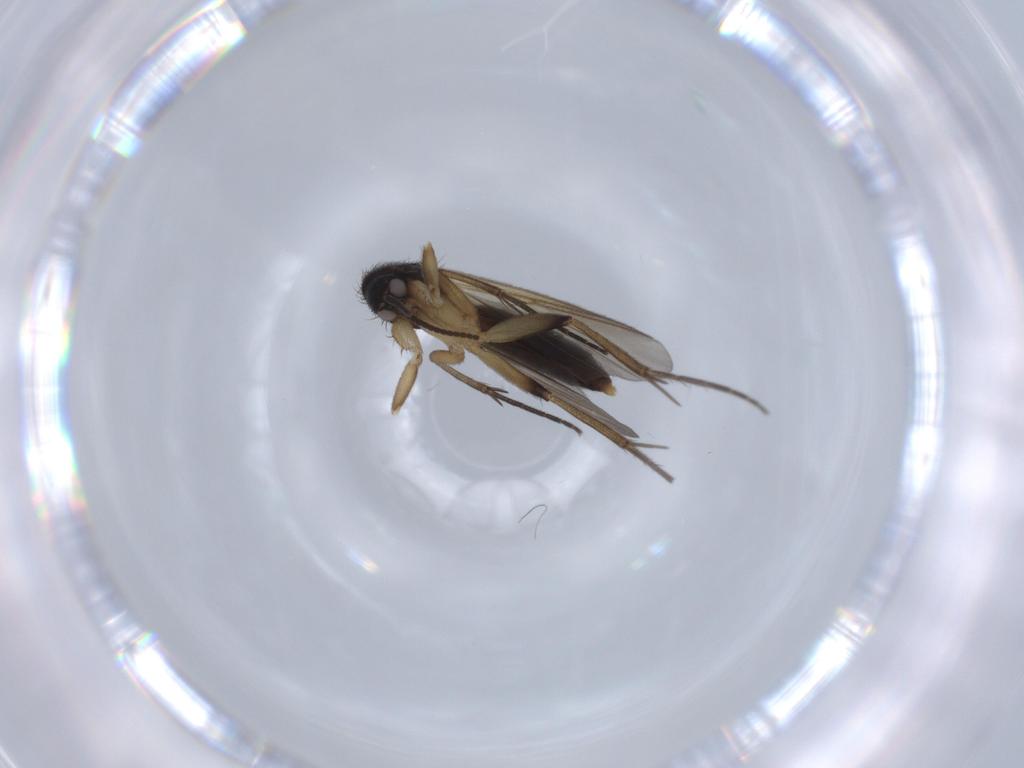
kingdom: Animalia
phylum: Arthropoda
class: Insecta
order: Diptera
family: Mycetophilidae
